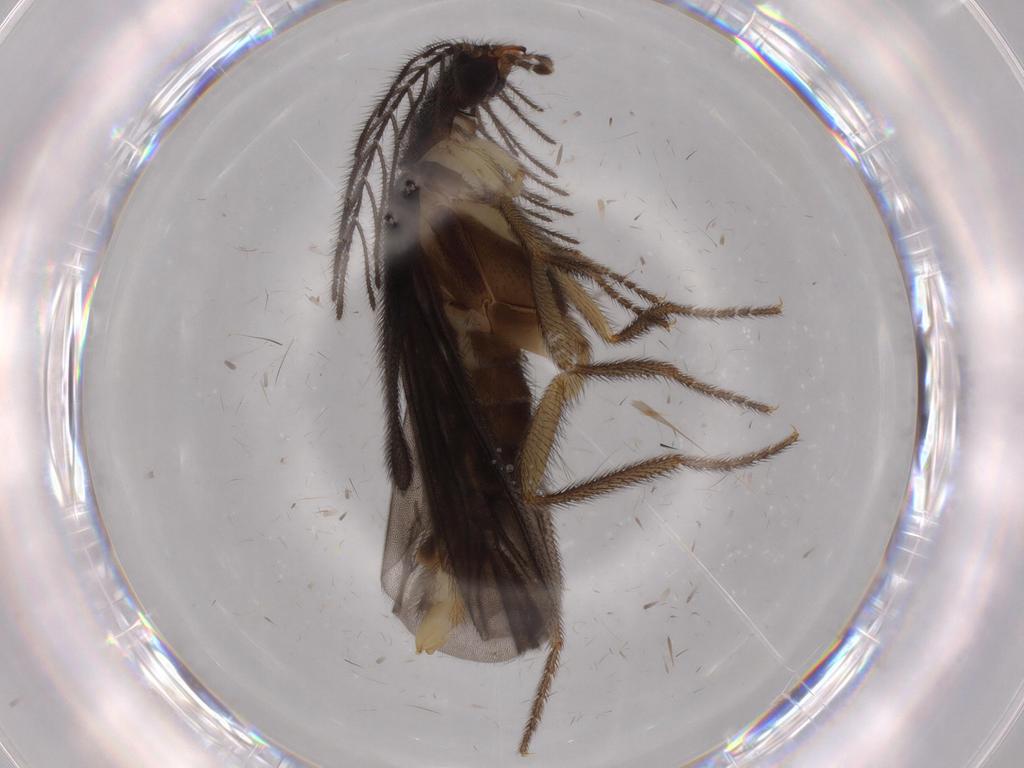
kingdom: Animalia
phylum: Arthropoda
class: Insecta
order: Coleoptera
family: Phengodidae
